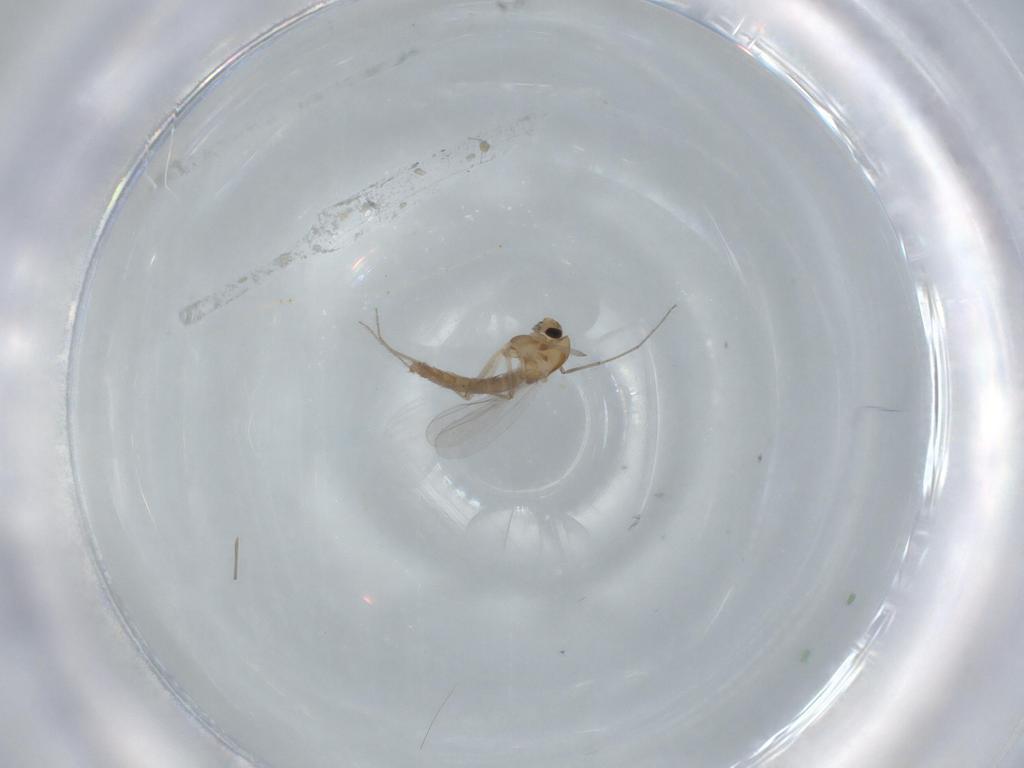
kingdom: Animalia
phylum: Arthropoda
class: Insecta
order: Diptera
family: Chironomidae
